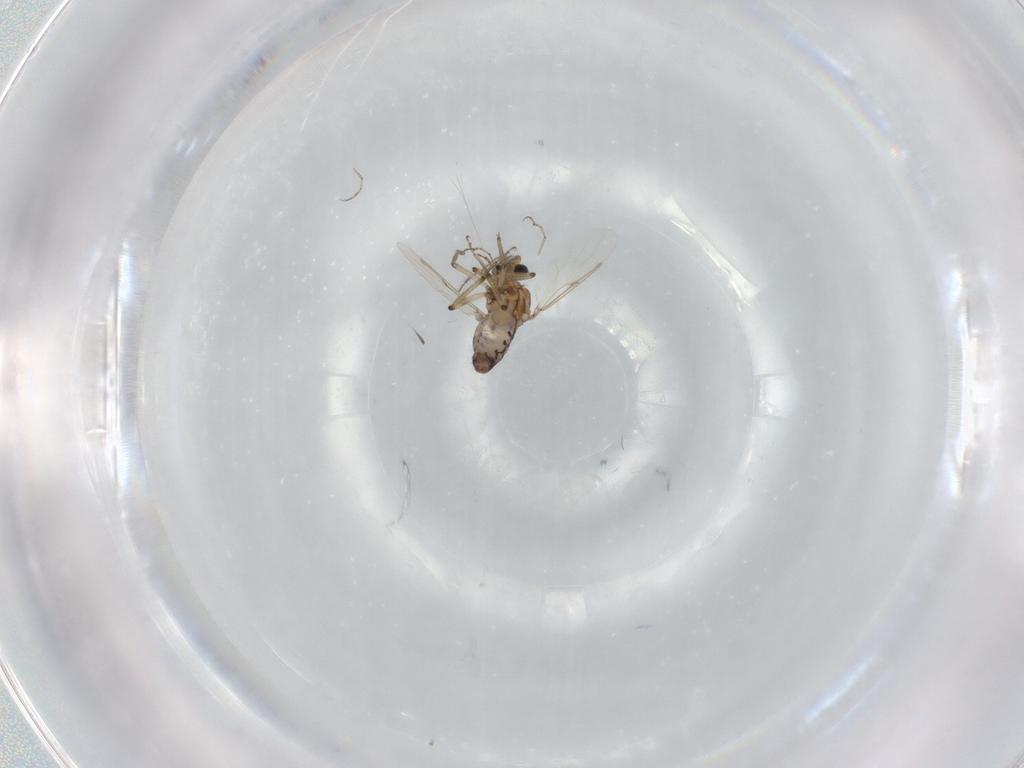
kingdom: Animalia
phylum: Arthropoda
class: Insecta
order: Diptera
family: Ceratopogonidae
